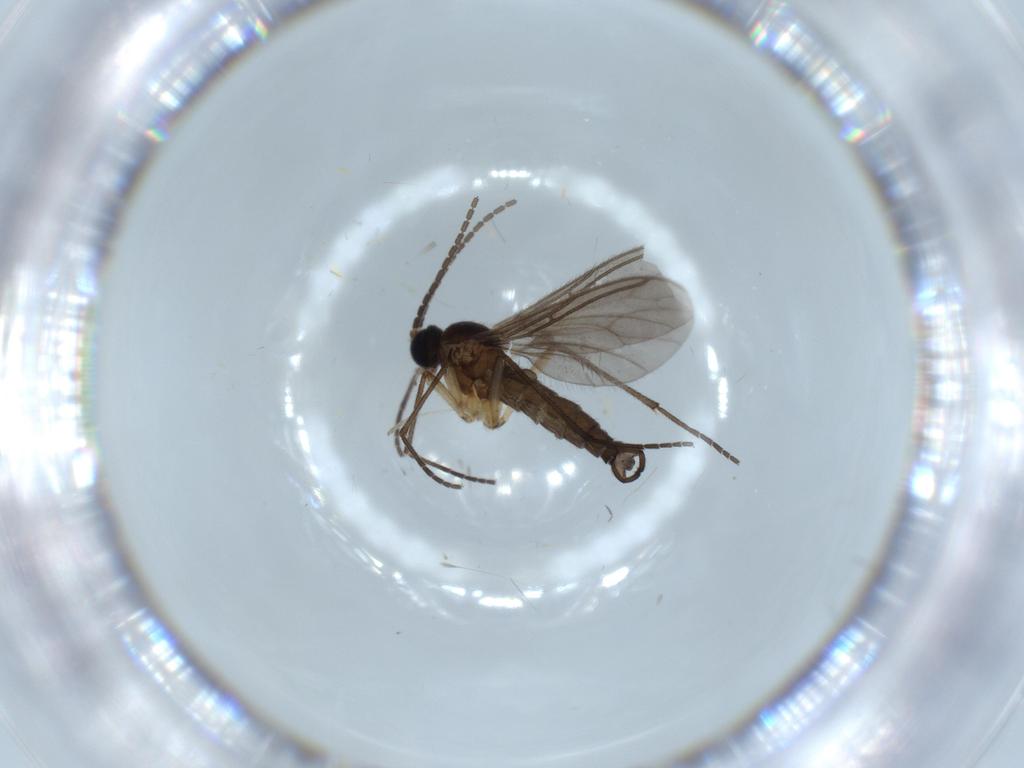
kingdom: Animalia
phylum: Arthropoda
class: Insecta
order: Diptera
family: Phoridae
